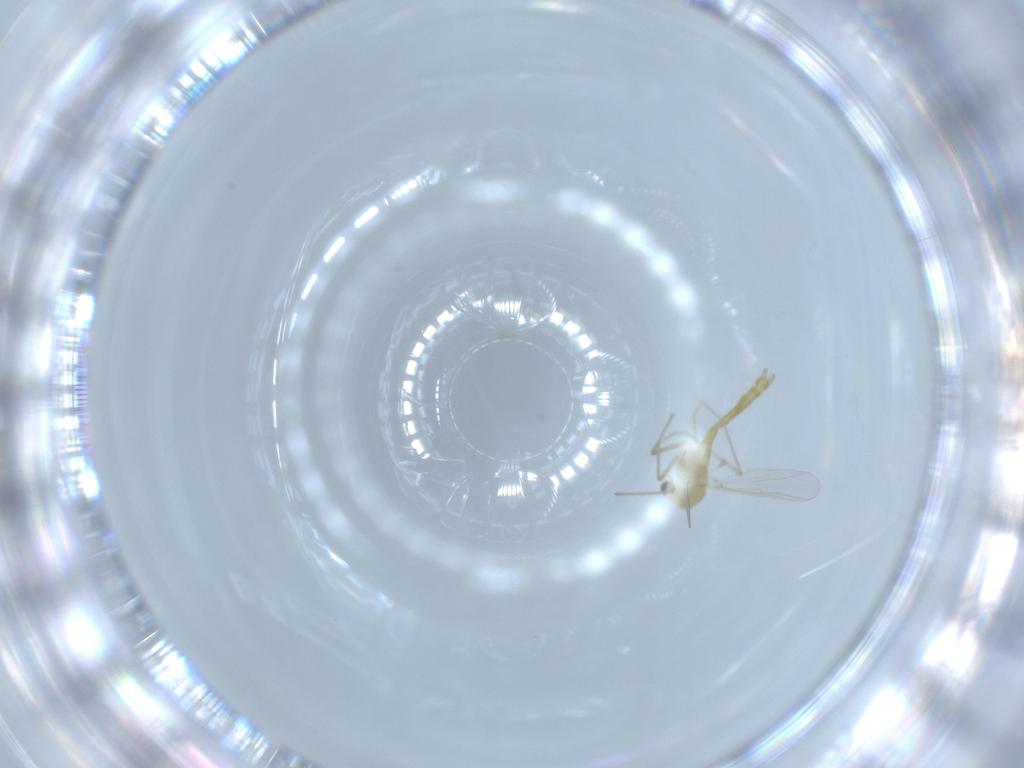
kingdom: Animalia
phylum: Arthropoda
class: Insecta
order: Diptera
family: Chironomidae
